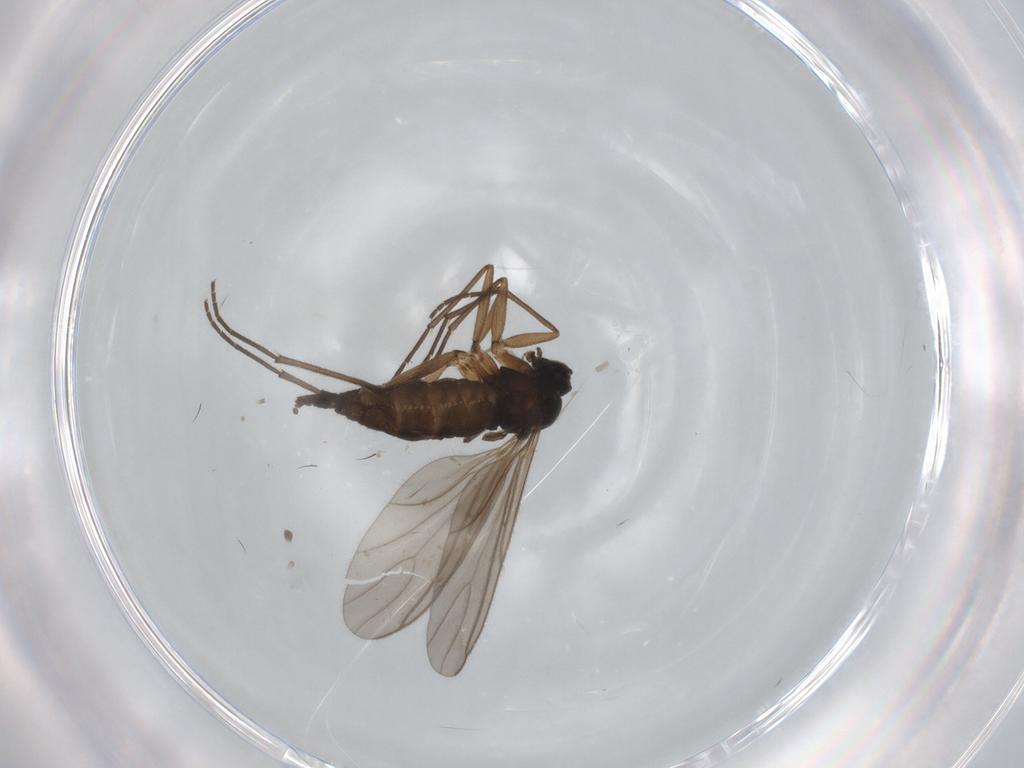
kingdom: Animalia
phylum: Arthropoda
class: Insecta
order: Diptera
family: Sciaridae
